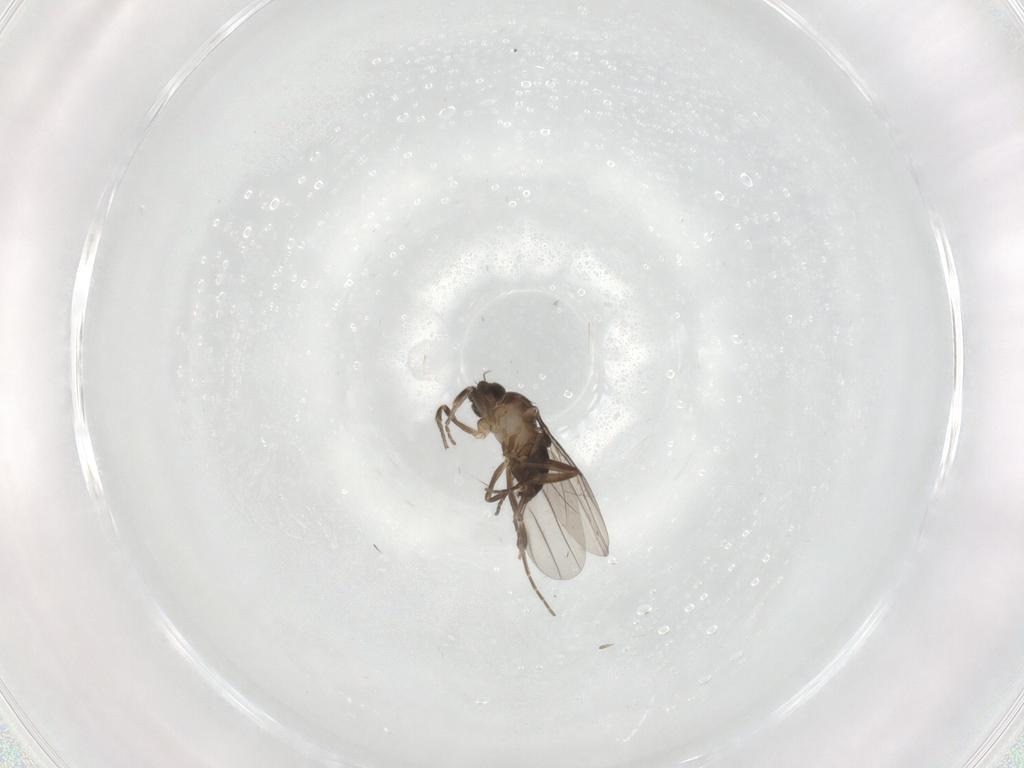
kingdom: Animalia
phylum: Arthropoda
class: Insecta
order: Diptera
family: Phoridae
